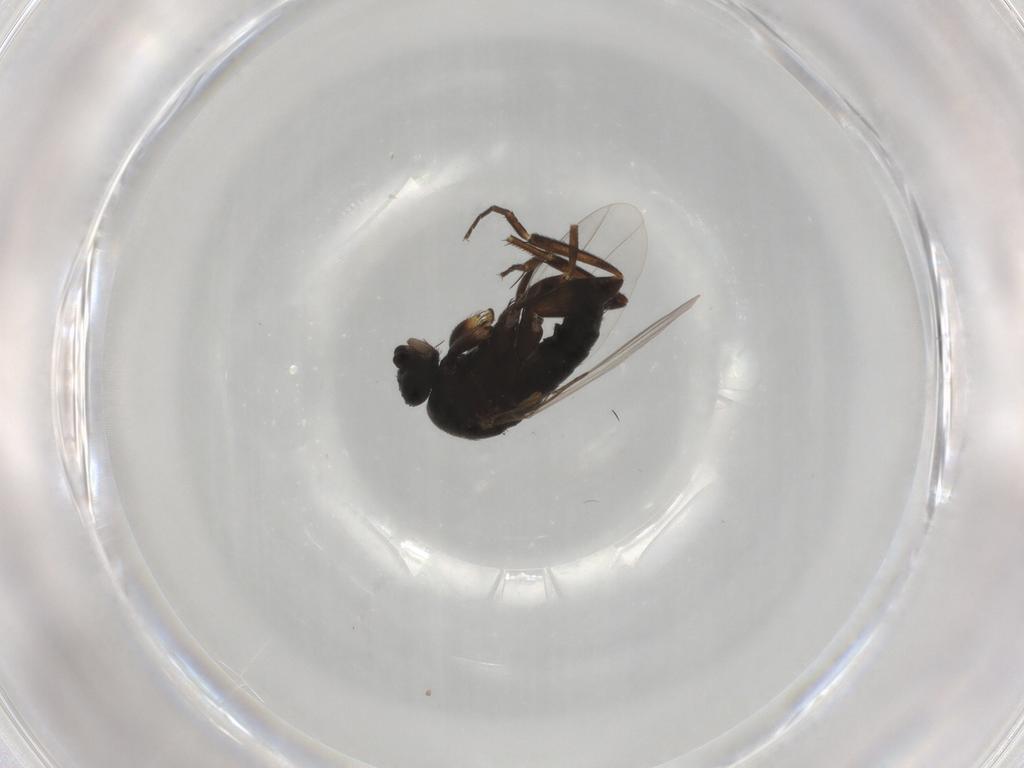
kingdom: Animalia
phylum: Arthropoda
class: Insecta
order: Diptera
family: Phoridae
